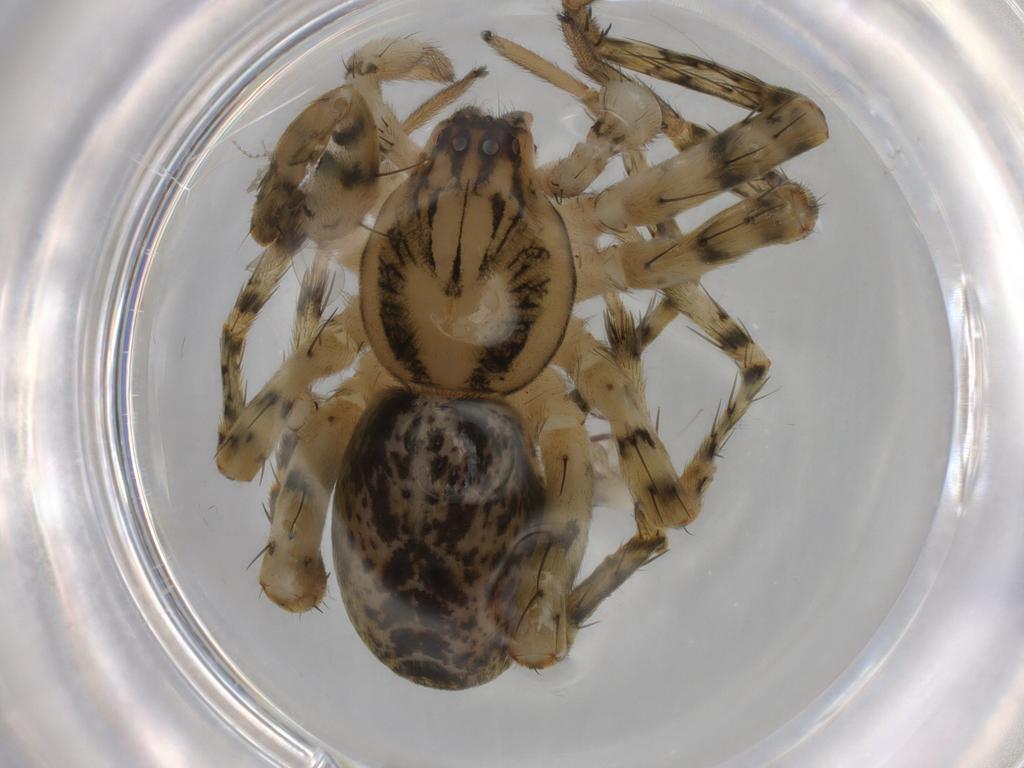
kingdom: Animalia
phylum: Arthropoda
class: Arachnida
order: Araneae
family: Anyphaenidae
